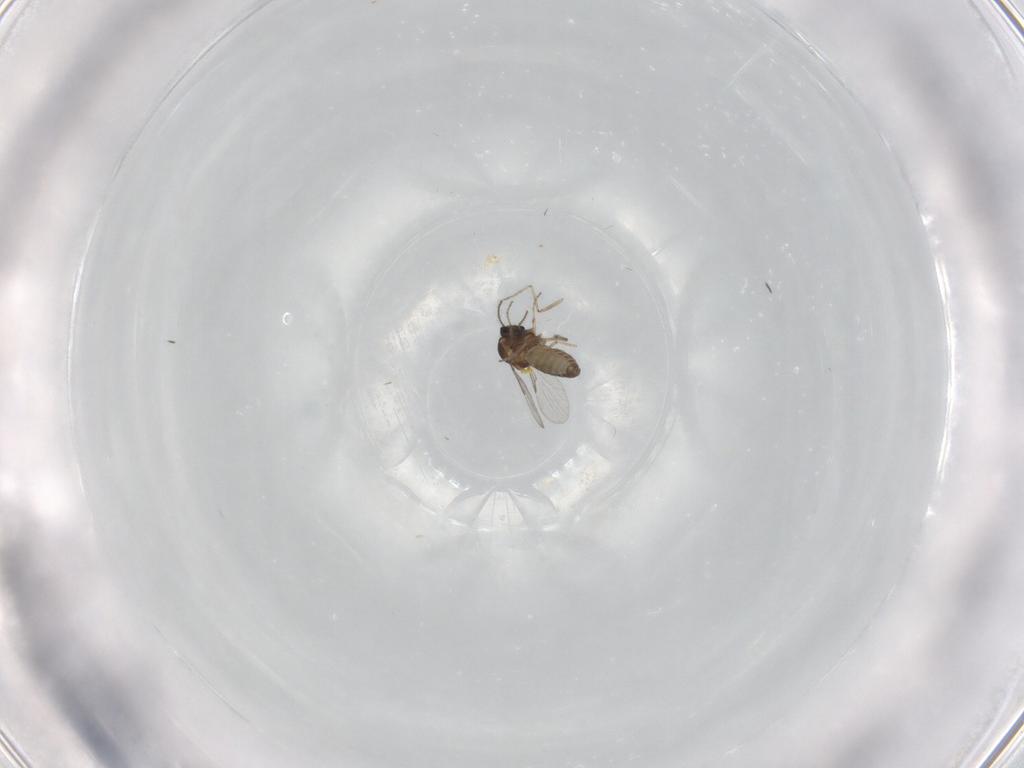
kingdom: Animalia
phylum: Arthropoda
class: Insecta
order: Diptera
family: Ceratopogonidae
